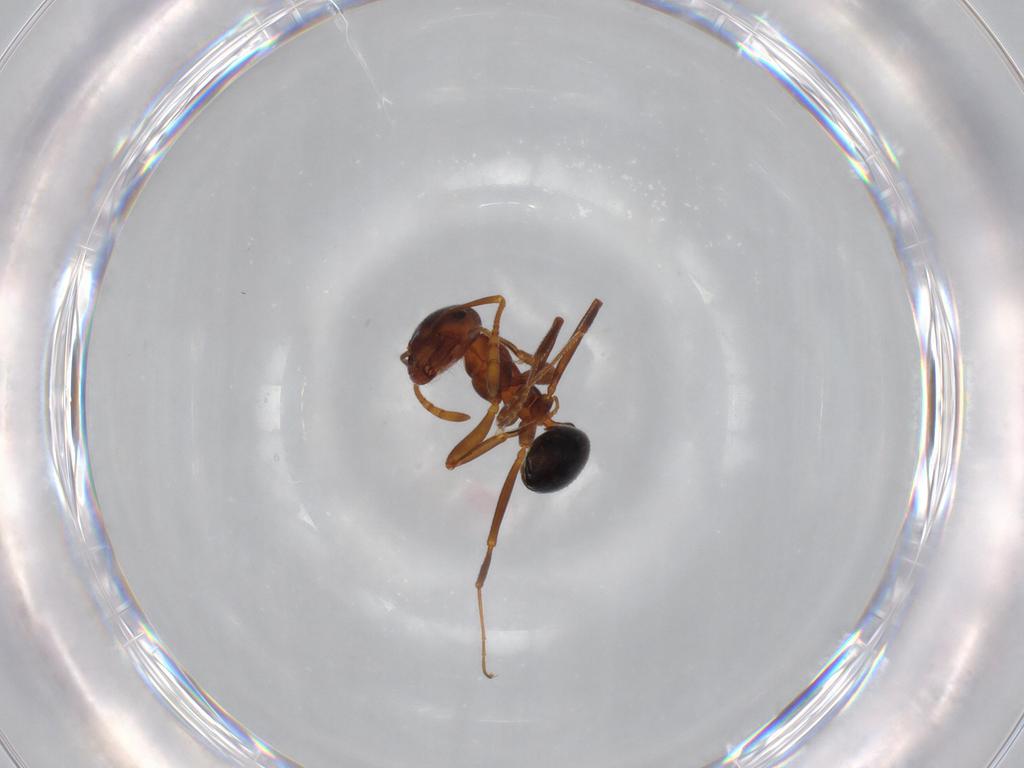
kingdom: Animalia
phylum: Arthropoda
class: Insecta
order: Hymenoptera
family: Formicidae
